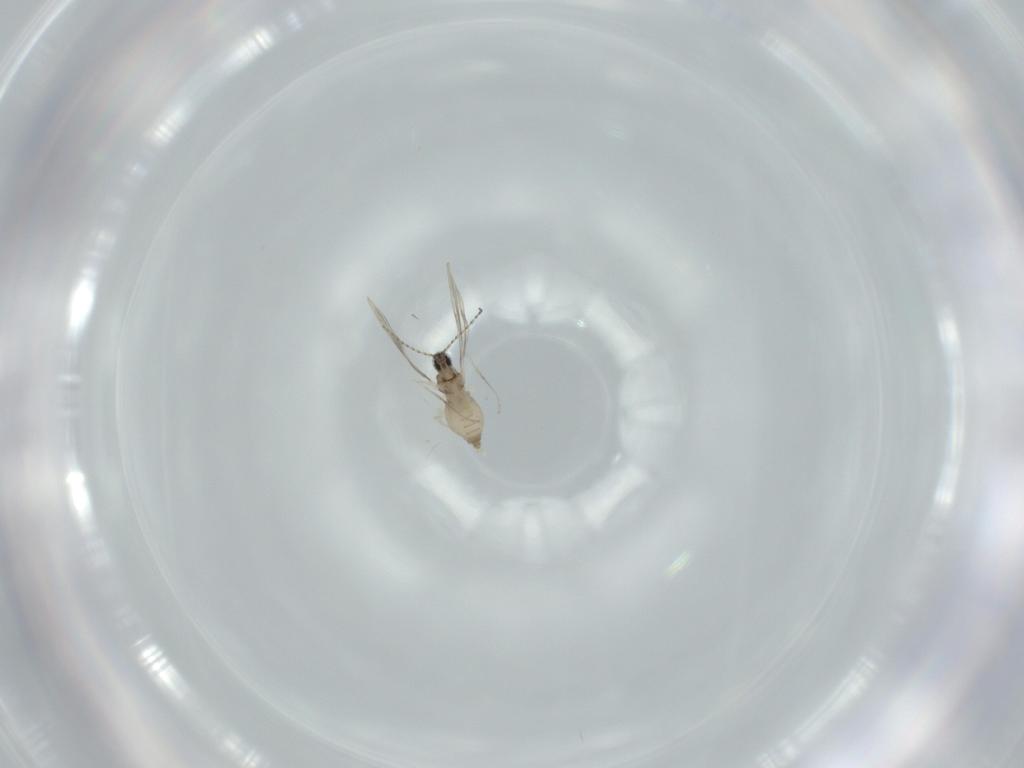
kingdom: Animalia
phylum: Arthropoda
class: Insecta
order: Diptera
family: Cecidomyiidae
